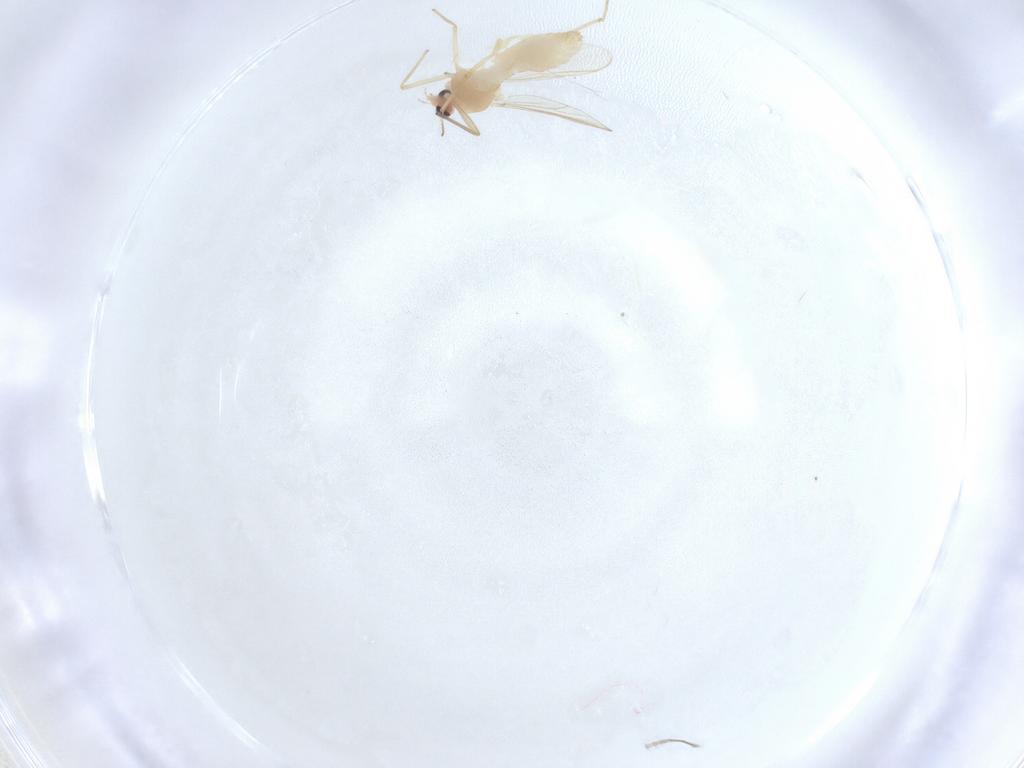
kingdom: Animalia
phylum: Arthropoda
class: Insecta
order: Diptera
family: Chironomidae
